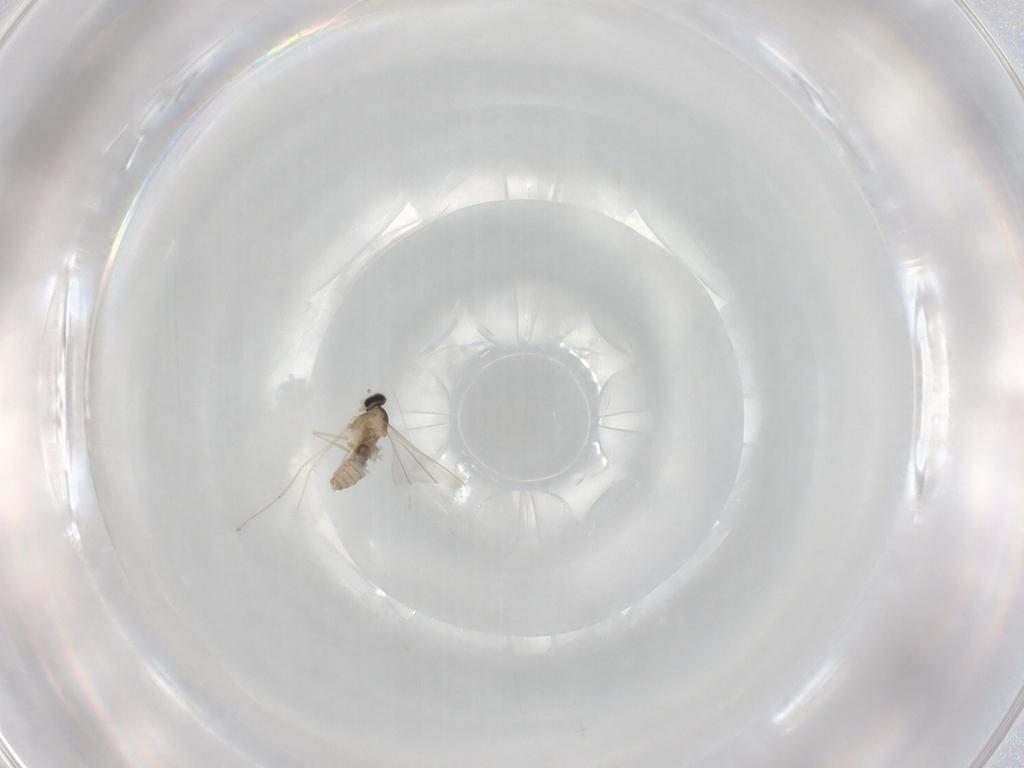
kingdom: Animalia
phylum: Arthropoda
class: Insecta
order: Diptera
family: Cecidomyiidae
